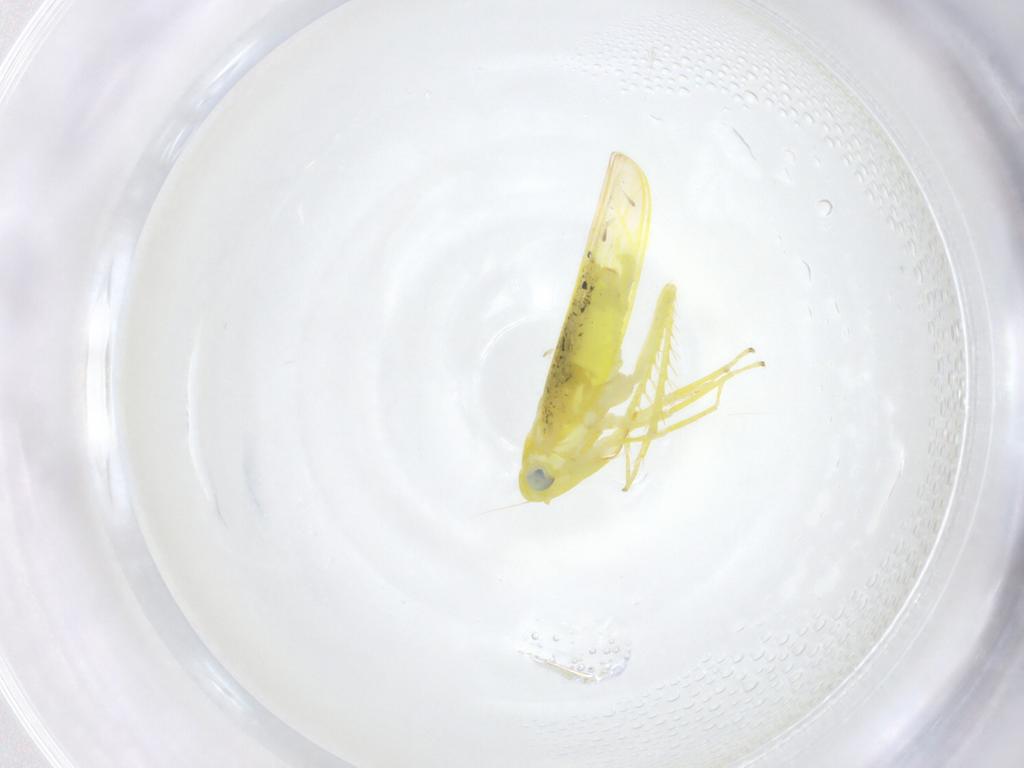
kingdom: Animalia
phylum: Arthropoda
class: Insecta
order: Hemiptera
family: Cicadellidae
